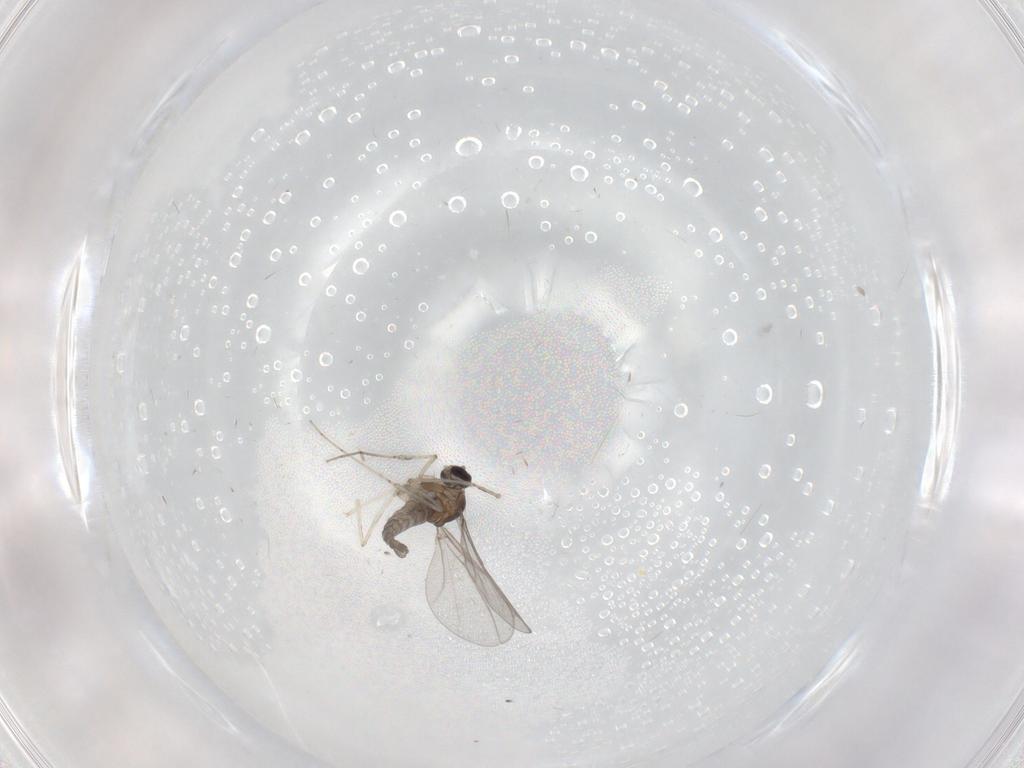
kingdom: Animalia
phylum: Arthropoda
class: Insecta
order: Diptera
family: Cecidomyiidae
